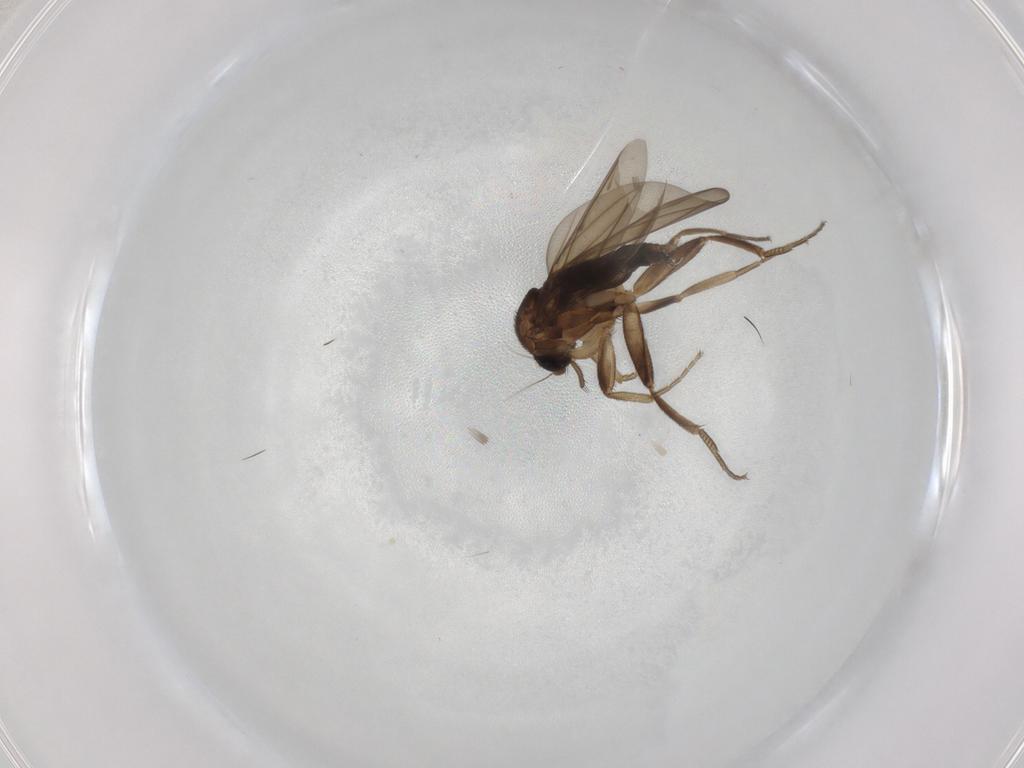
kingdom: Animalia
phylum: Arthropoda
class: Insecta
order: Diptera
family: Phoridae
